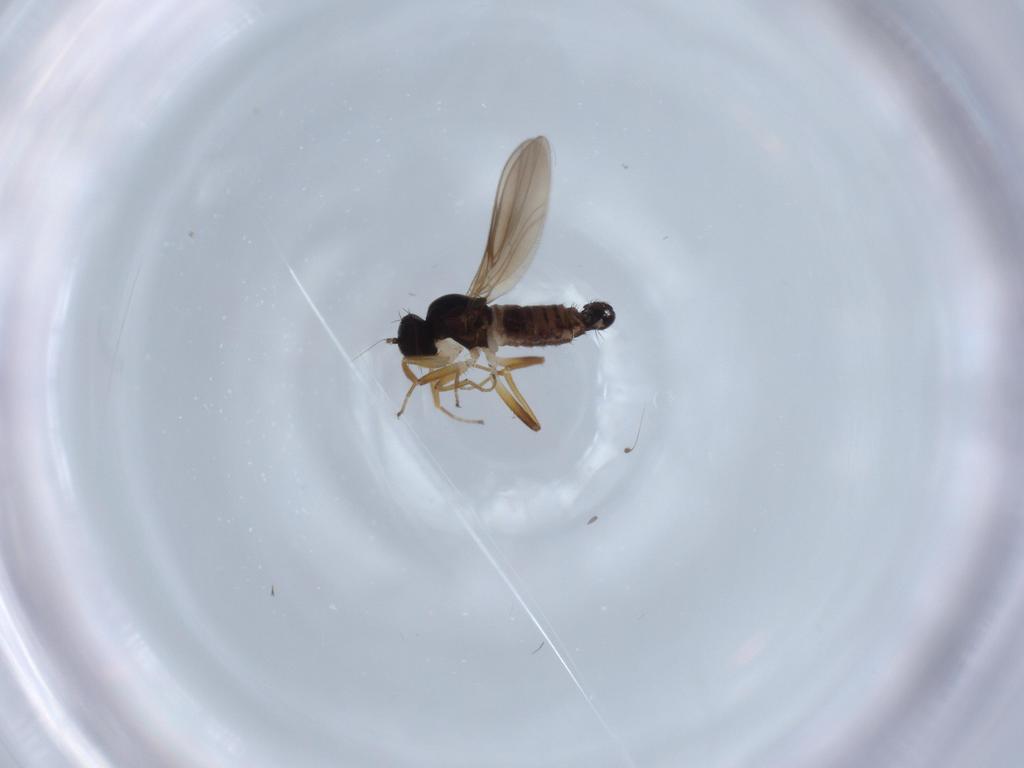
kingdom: Animalia
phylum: Arthropoda
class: Insecta
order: Diptera
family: Hybotidae
